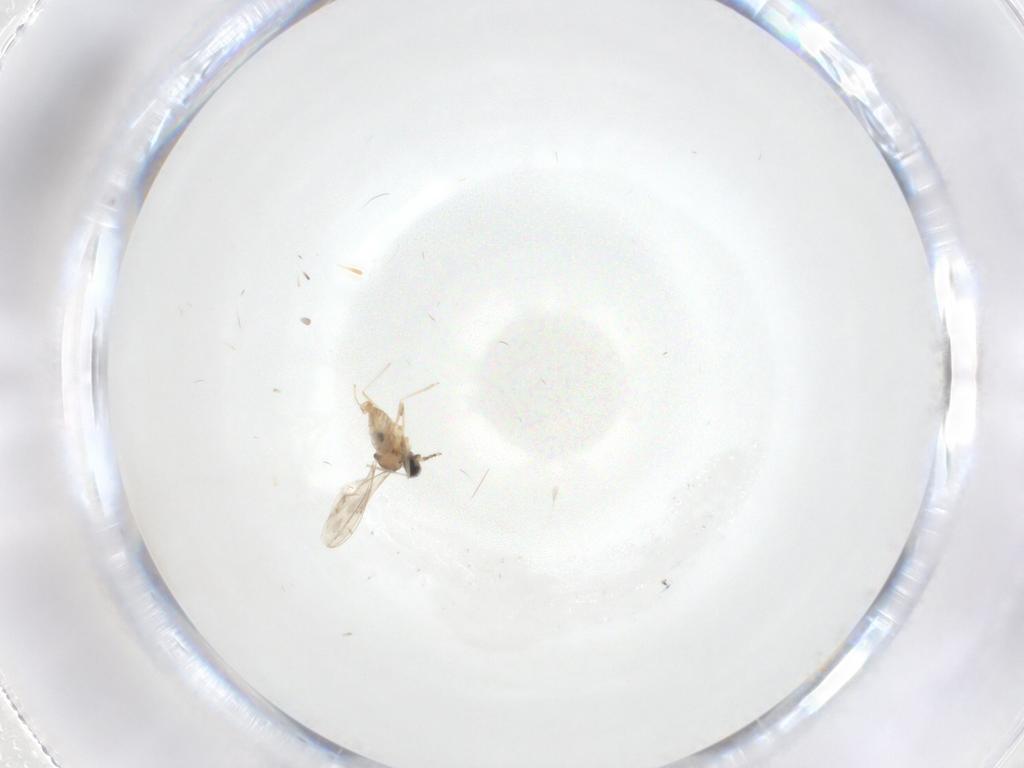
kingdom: Animalia
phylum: Arthropoda
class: Insecta
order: Diptera
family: Cecidomyiidae
